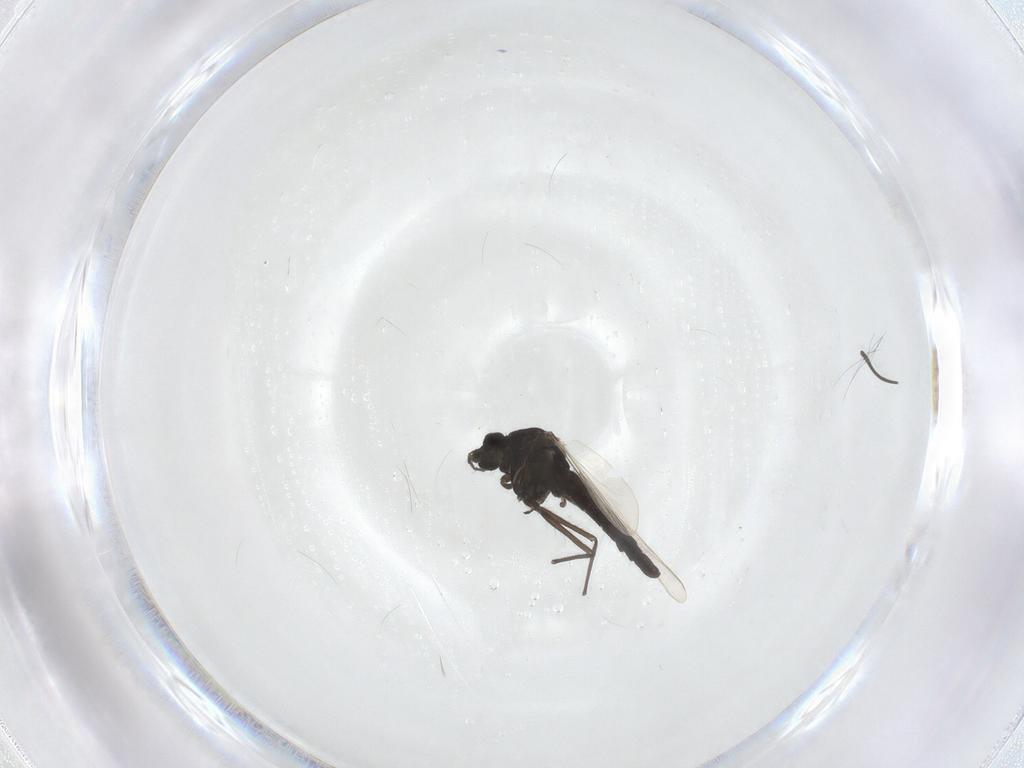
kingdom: Animalia
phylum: Arthropoda
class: Insecta
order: Diptera
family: Chironomidae
